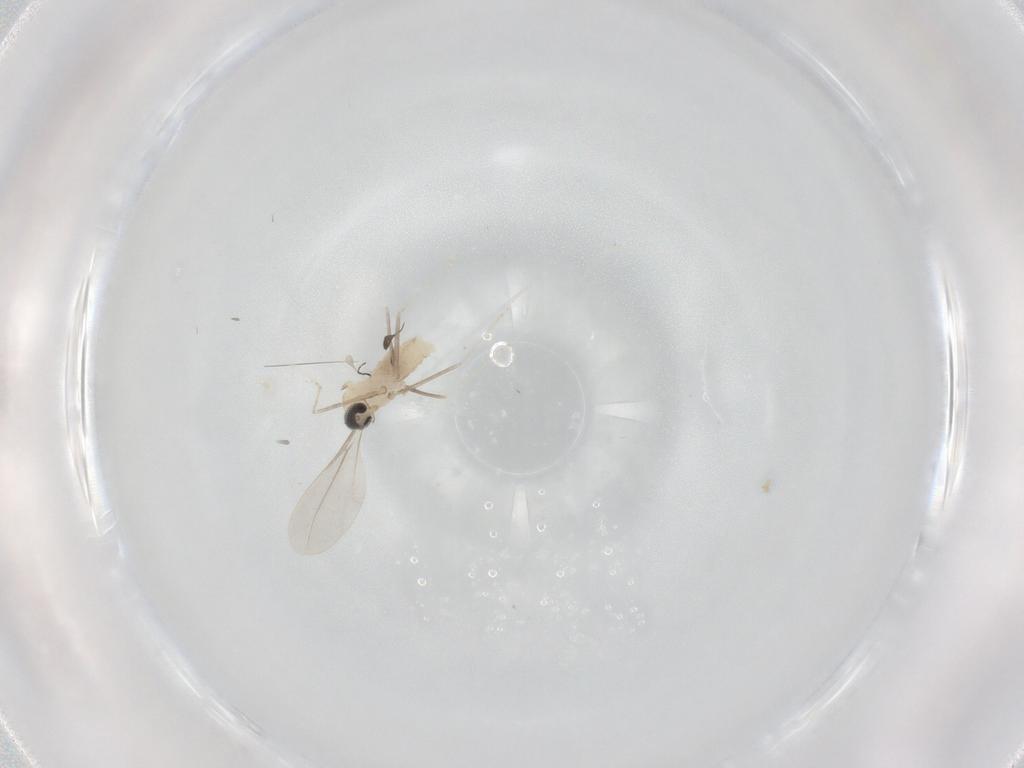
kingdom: Animalia
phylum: Arthropoda
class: Insecta
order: Diptera
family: Cecidomyiidae
